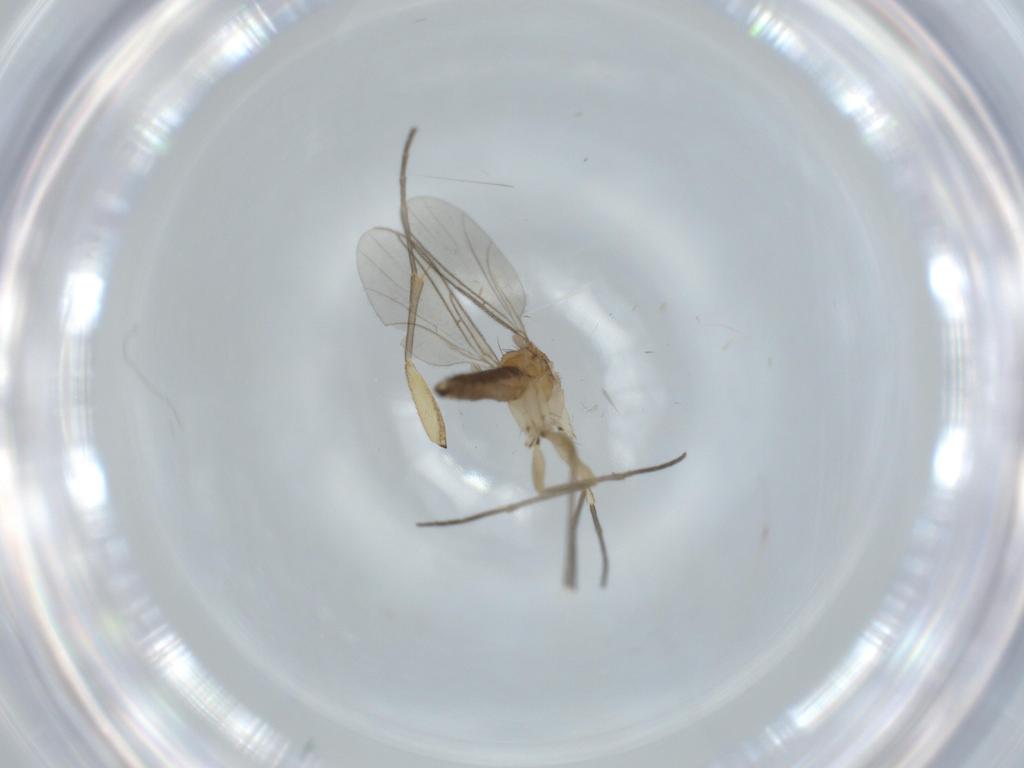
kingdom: Animalia
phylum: Arthropoda
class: Insecta
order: Diptera
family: Sciaridae
